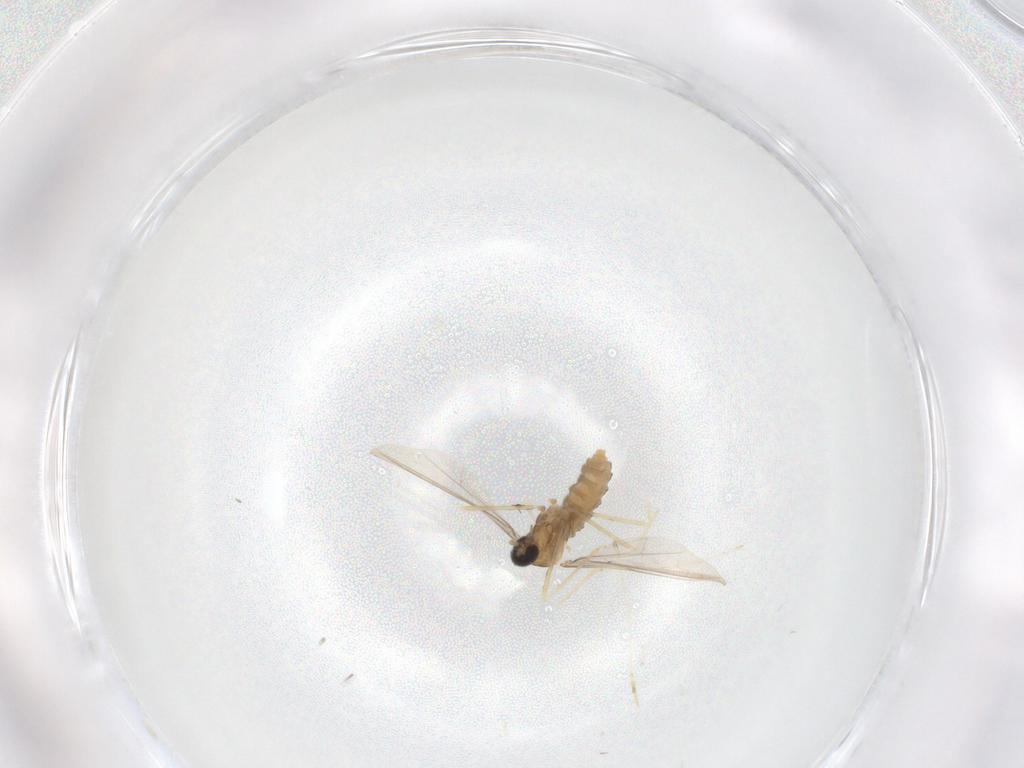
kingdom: Animalia
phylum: Arthropoda
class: Insecta
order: Diptera
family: Cecidomyiidae
